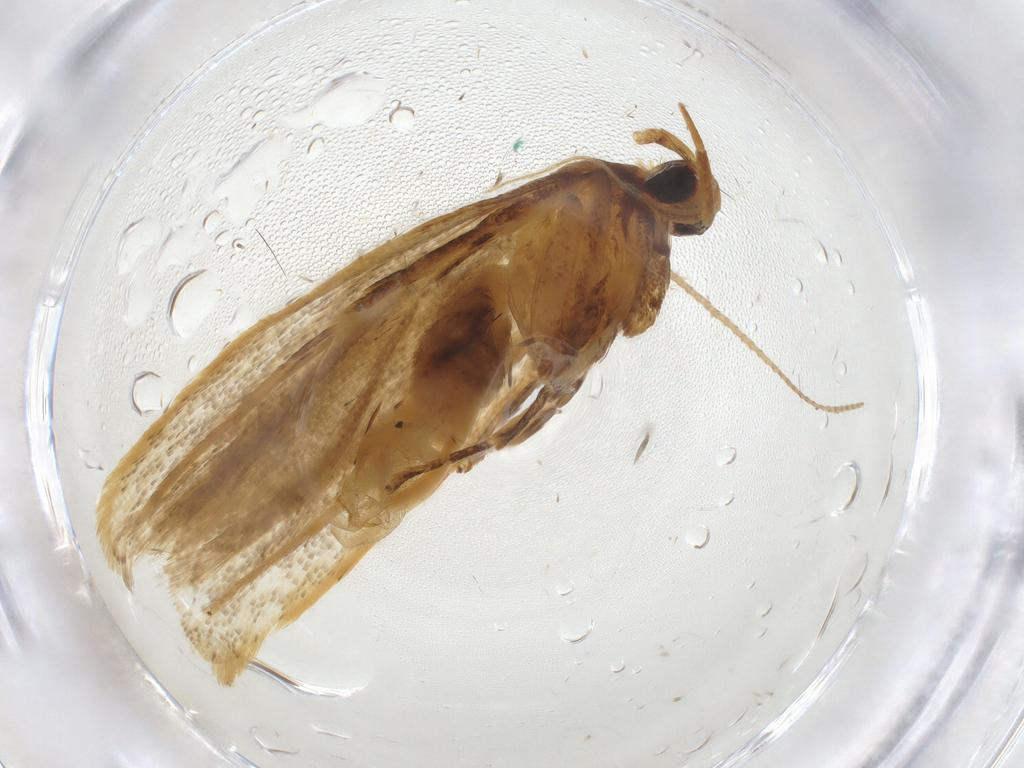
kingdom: Animalia
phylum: Arthropoda
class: Insecta
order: Lepidoptera
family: Lecithoceridae
